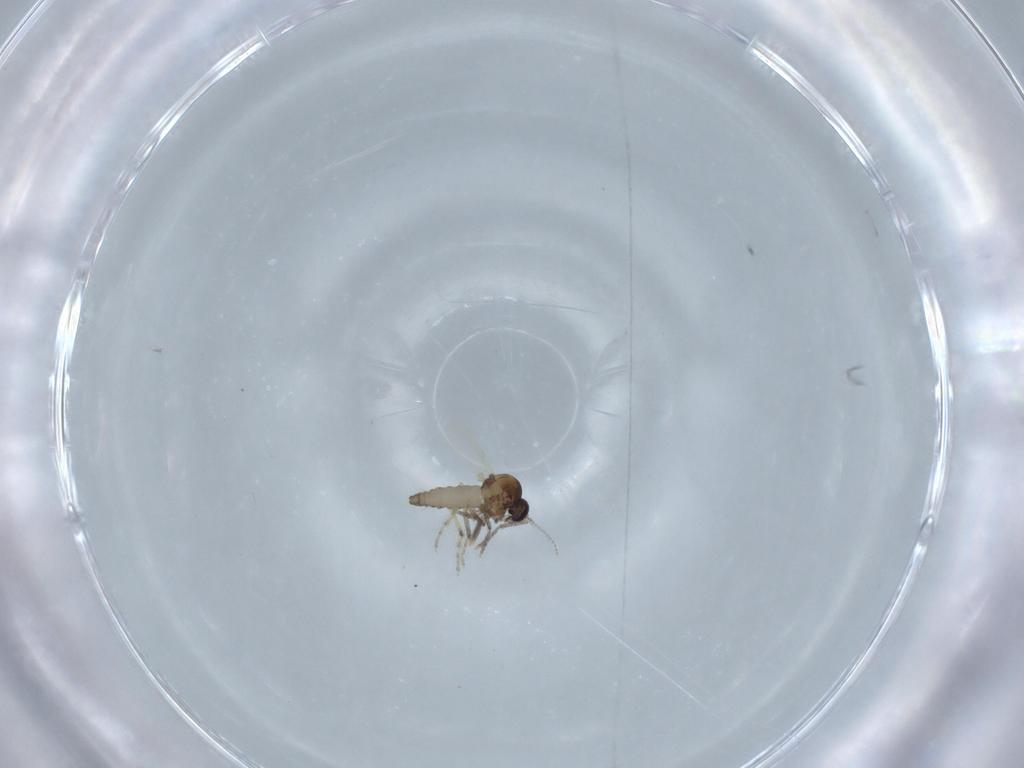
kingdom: Animalia
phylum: Arthropoda
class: Insecta
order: Diptera
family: Ceratopogonidae
